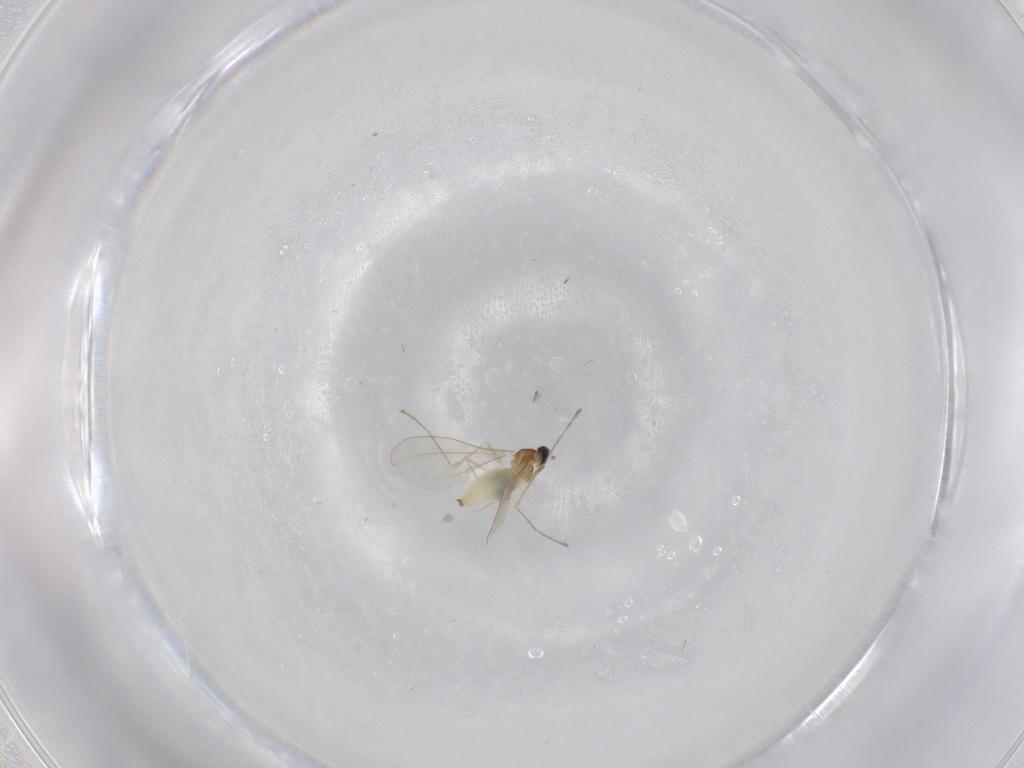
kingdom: Animalia
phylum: Arthropoda
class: Insecta
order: Diptera
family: Cecidomyiidae
